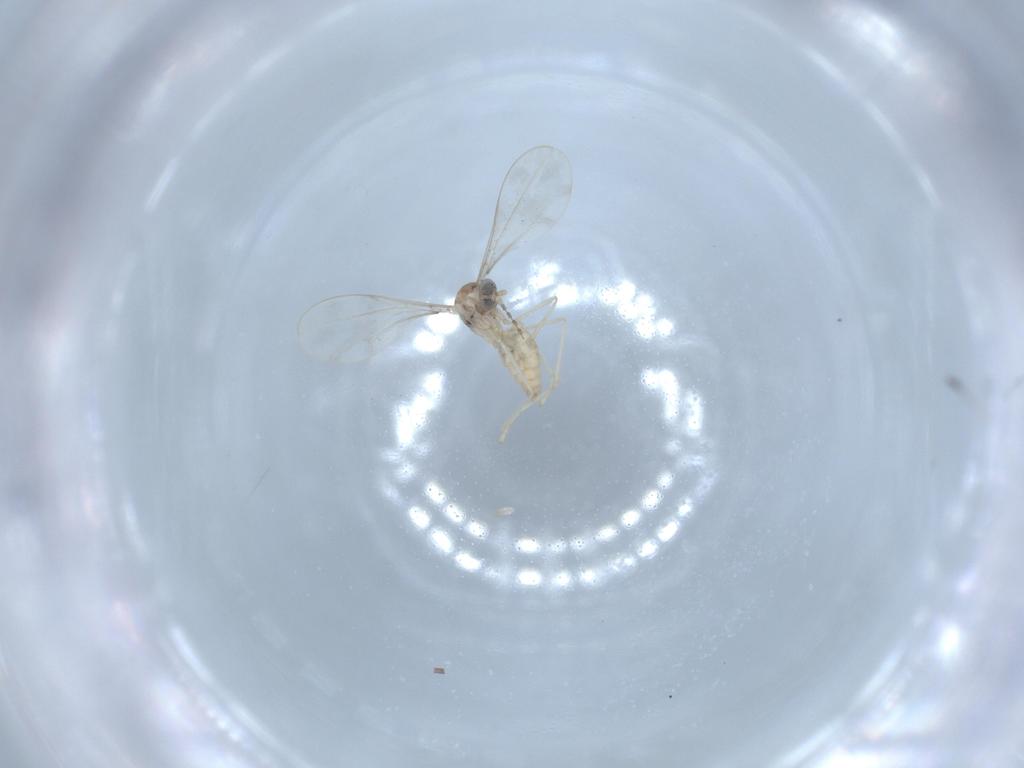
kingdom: Animalia
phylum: Arthropoda
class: Insecta
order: Diptera
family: Cecidomyiidae
